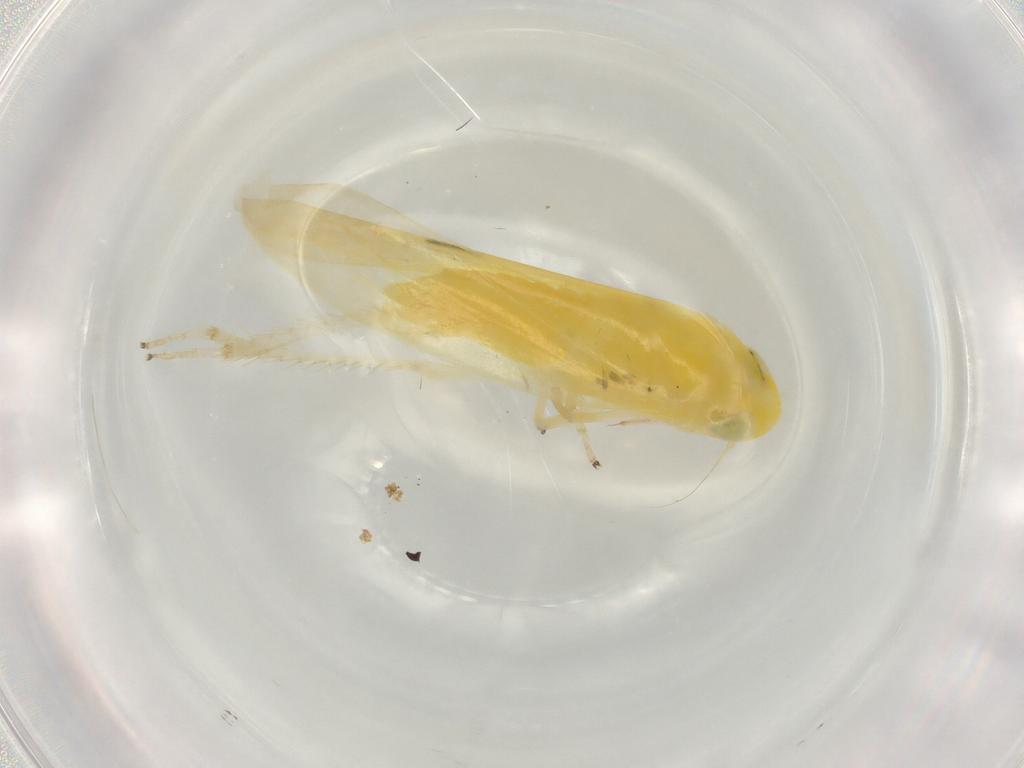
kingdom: Animalia
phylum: Arthropoda
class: Insecta
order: Hemiptera
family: Cicadellidae
